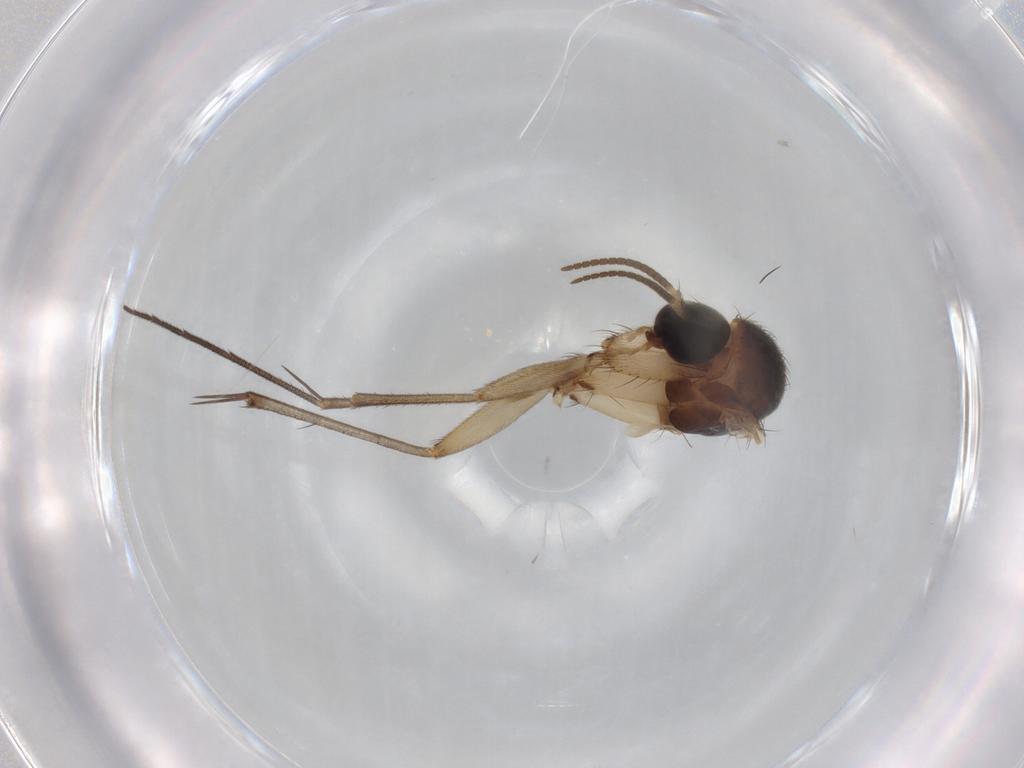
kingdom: Animalia
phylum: Arthropoda
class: Insecta
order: Diptera
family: Mycetophilidae
